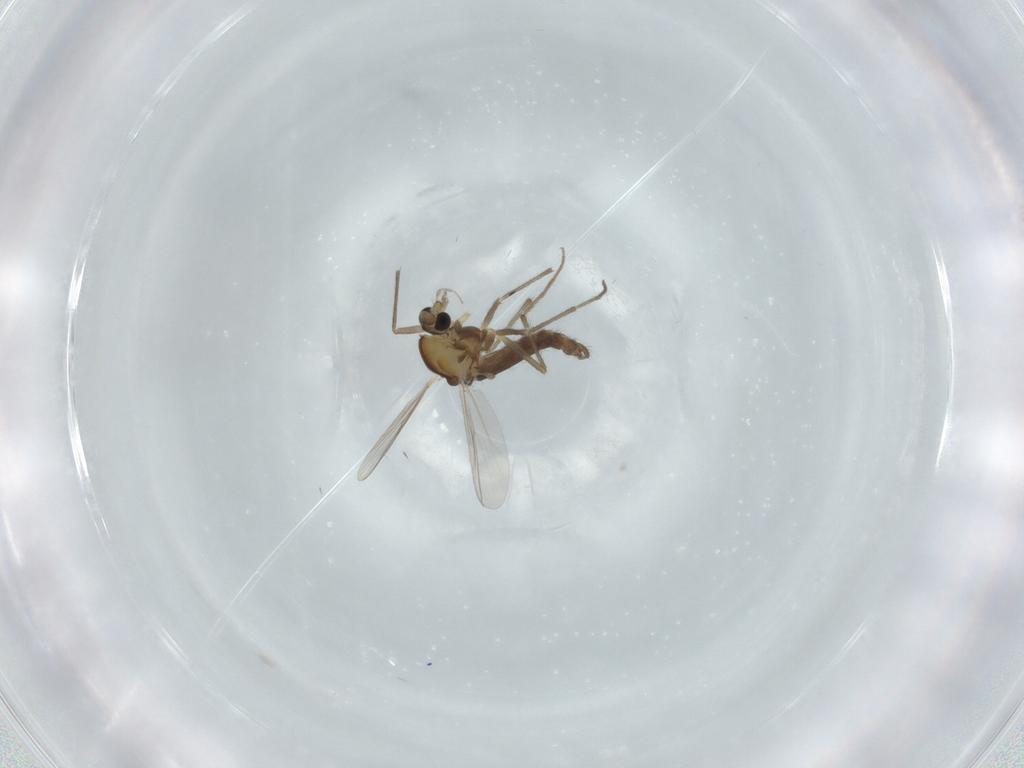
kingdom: Animalia
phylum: Arthropoda
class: Insecta
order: Diptera
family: Chironomidae
